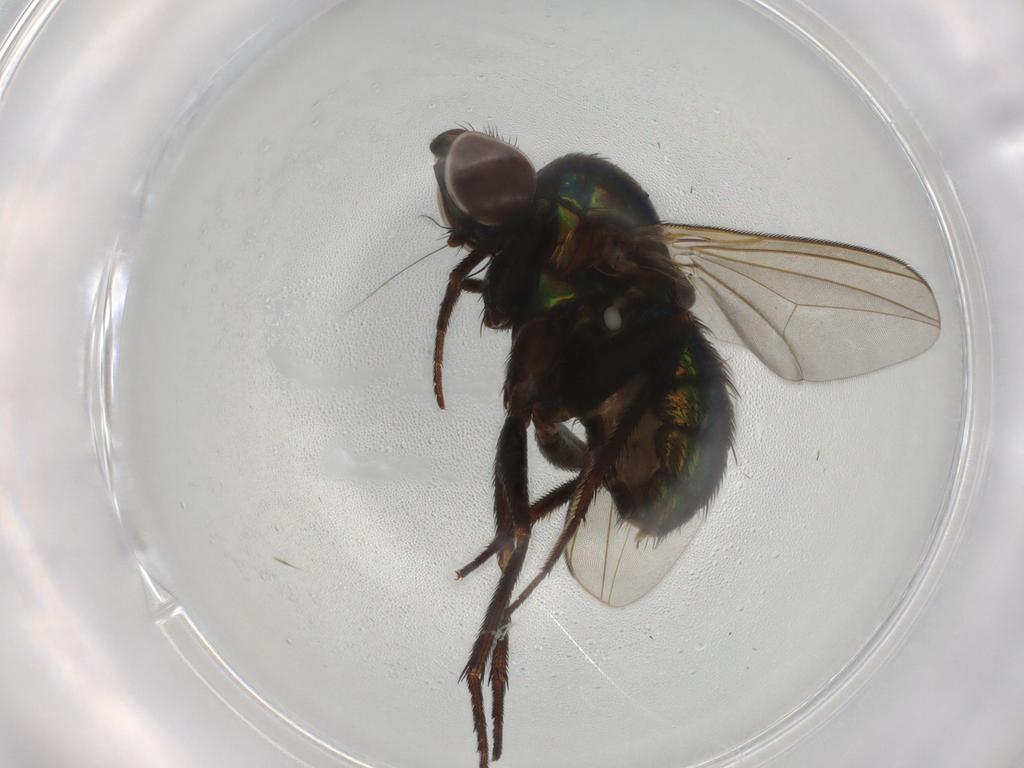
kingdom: Animalia
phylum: Arthropoda
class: Insecta
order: Diptera
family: Dolichopodidae
